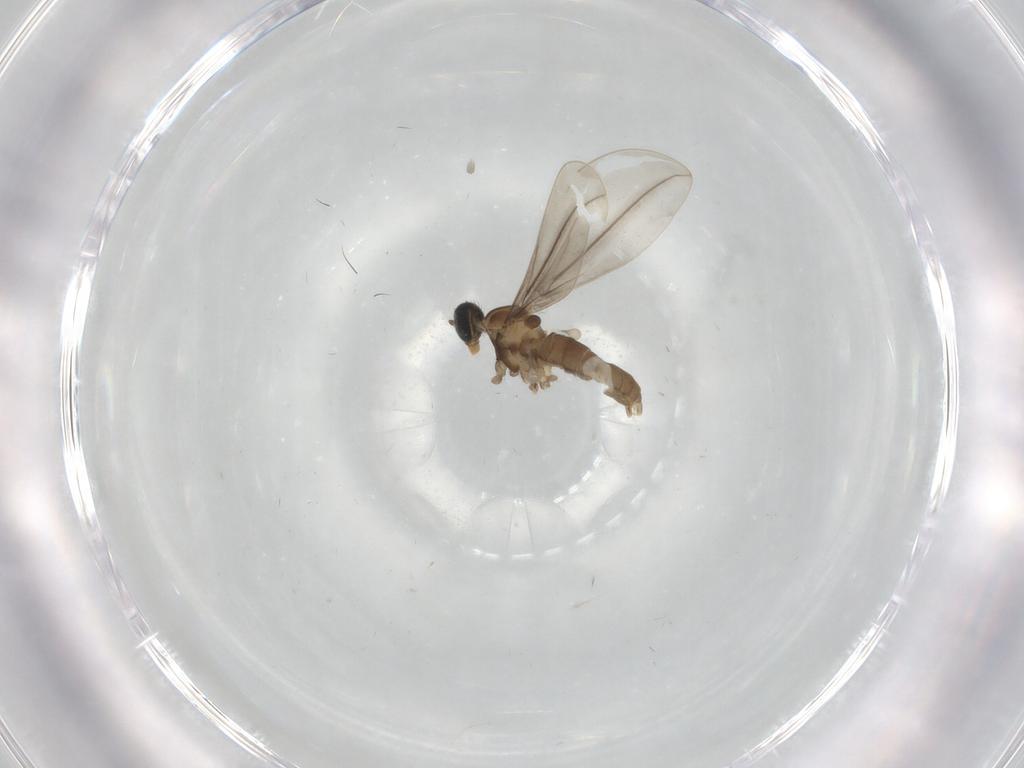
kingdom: Animalia
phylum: Arthropoda
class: Insecta
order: Diptera
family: Cecidomyiidae
